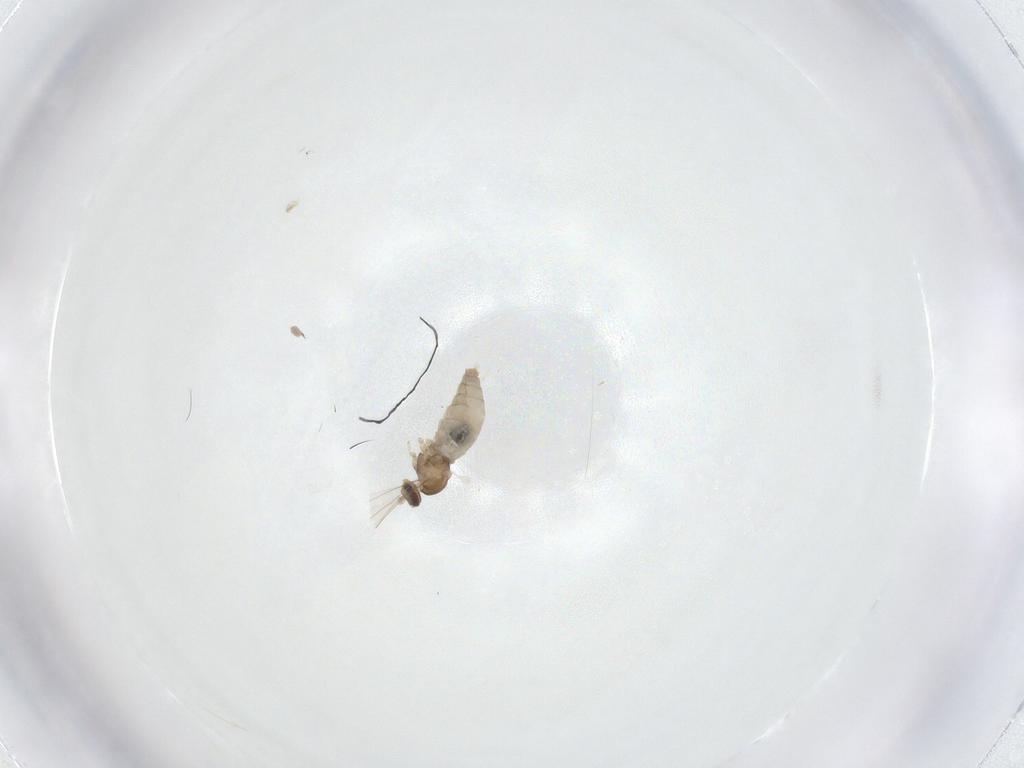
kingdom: Animalia
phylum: Arthropoda
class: Insecta
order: Diptera
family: Cecidomyiidae
